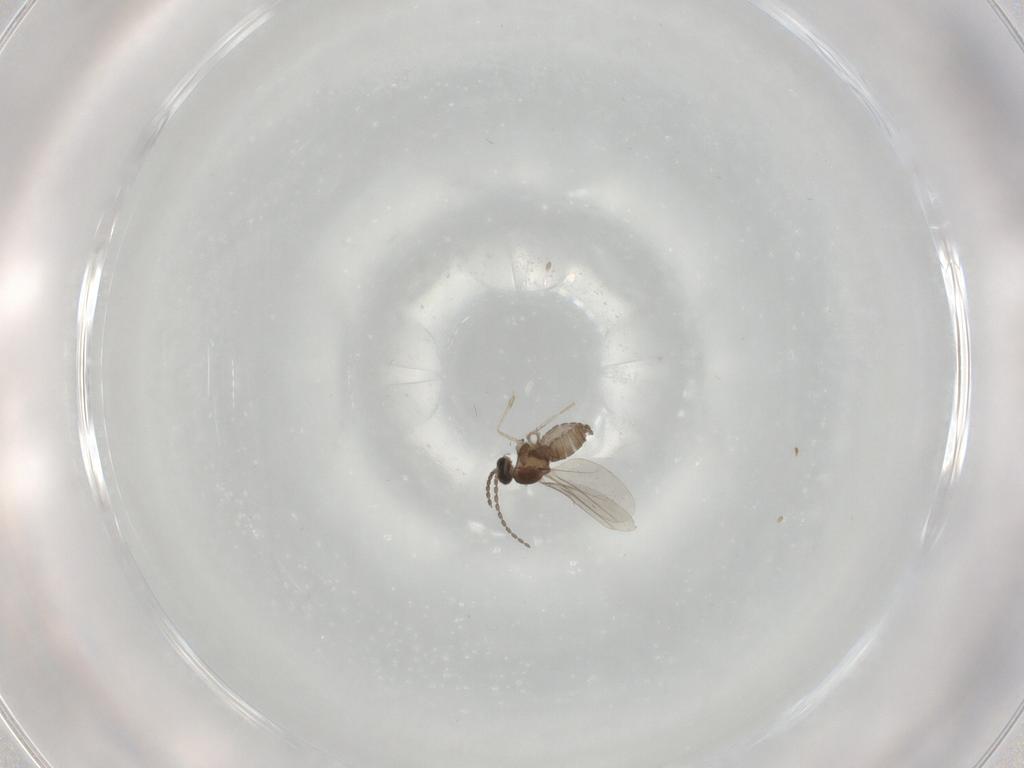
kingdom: Animalia
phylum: Arthropoda
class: Insecta
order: Diptera
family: Cecidomyiidae
